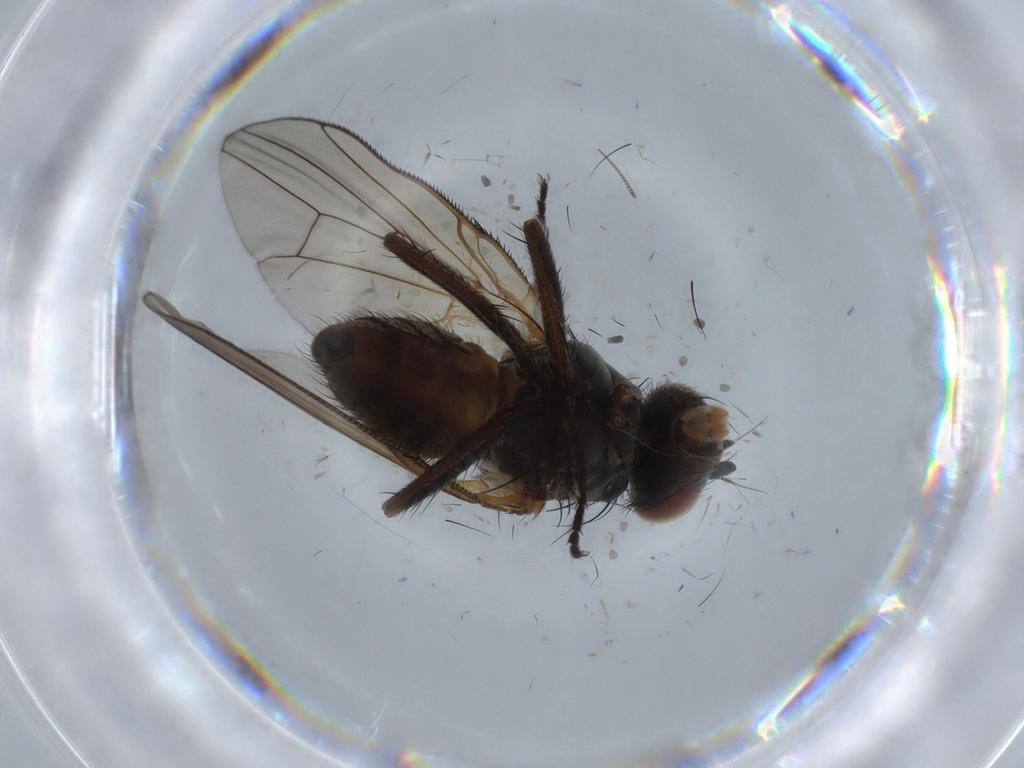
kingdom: Animalia
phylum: Arthropoda
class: Insecta
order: Diptera
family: Anthomyiidae
